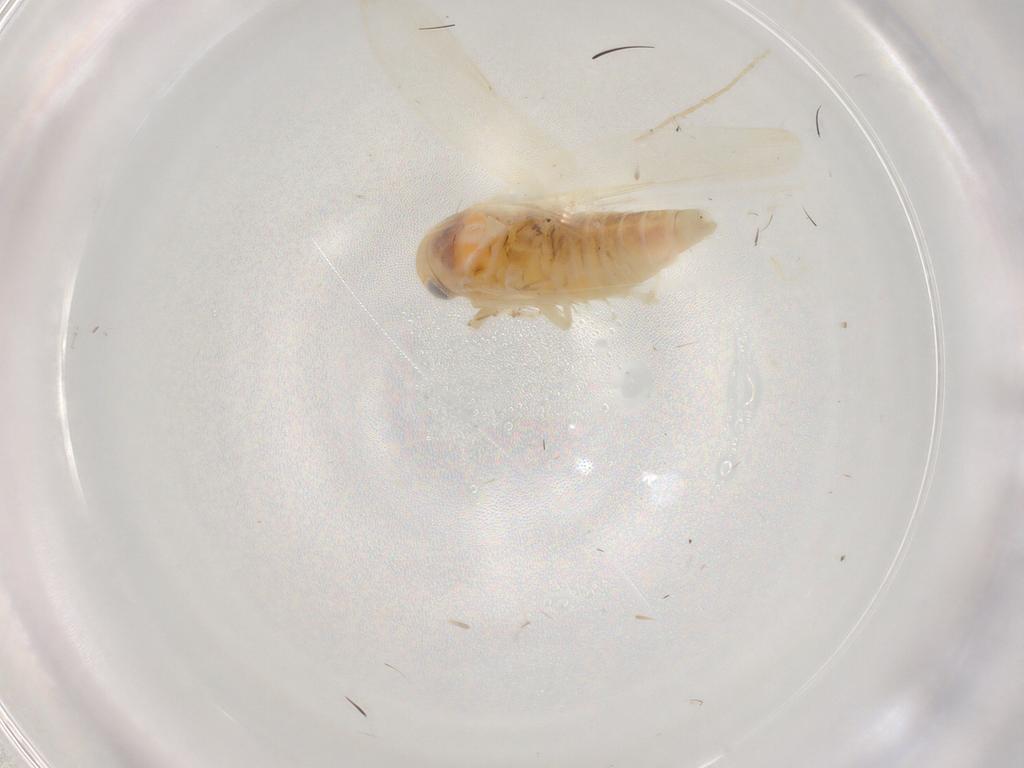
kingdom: Animalia
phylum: Arthropoda
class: Insecta
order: Hemiptera
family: Cicadellidae
